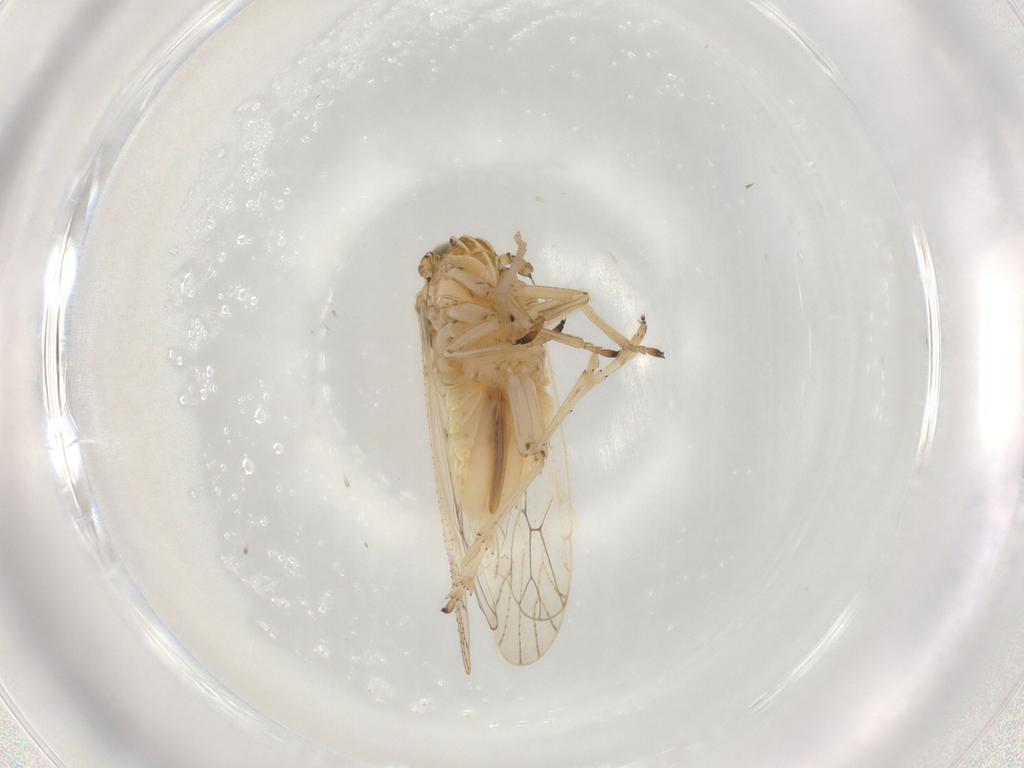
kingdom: Animalia
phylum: Arthropoda
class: Insecta
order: Hemiptera
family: Delphacidae
